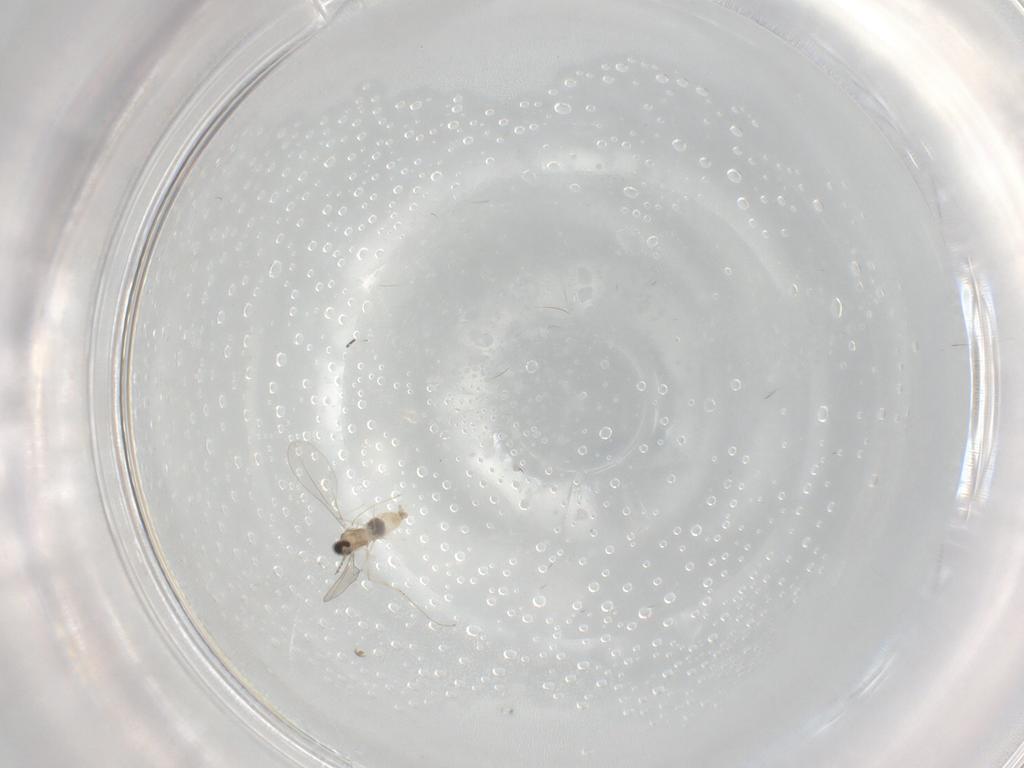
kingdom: Animalia
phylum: Arthropoda
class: Insecta
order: Diptera
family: Cecidomyiidae
